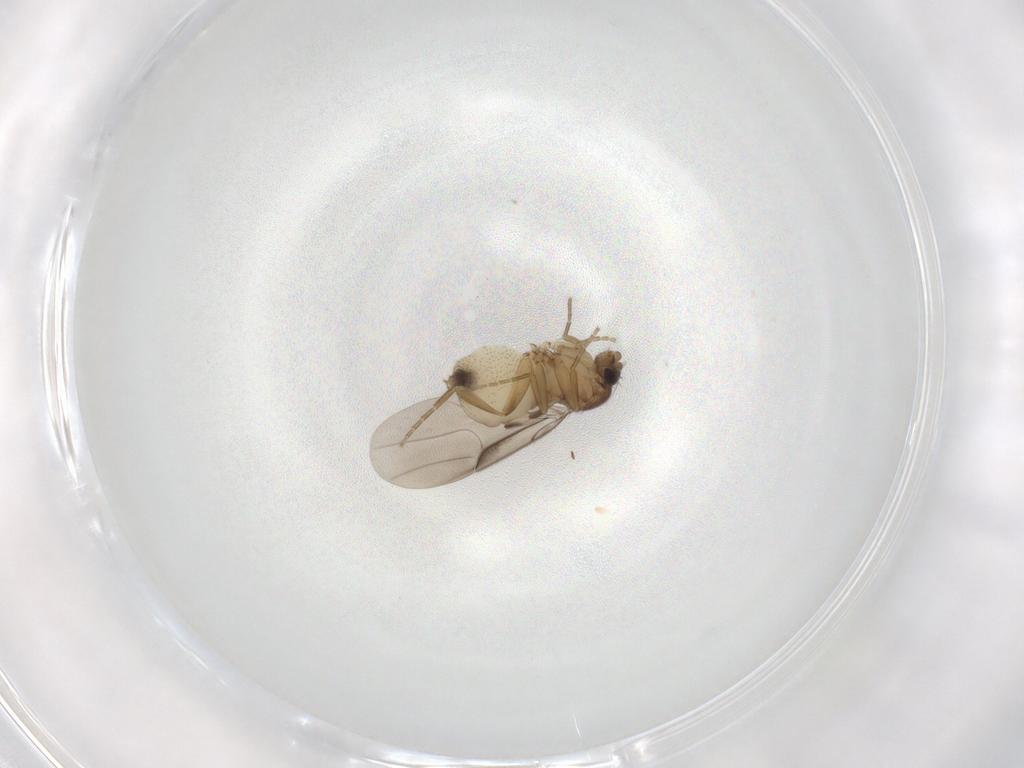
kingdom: Animalia
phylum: Arthropoda
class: Insecta
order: Diptera
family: Phoridae
